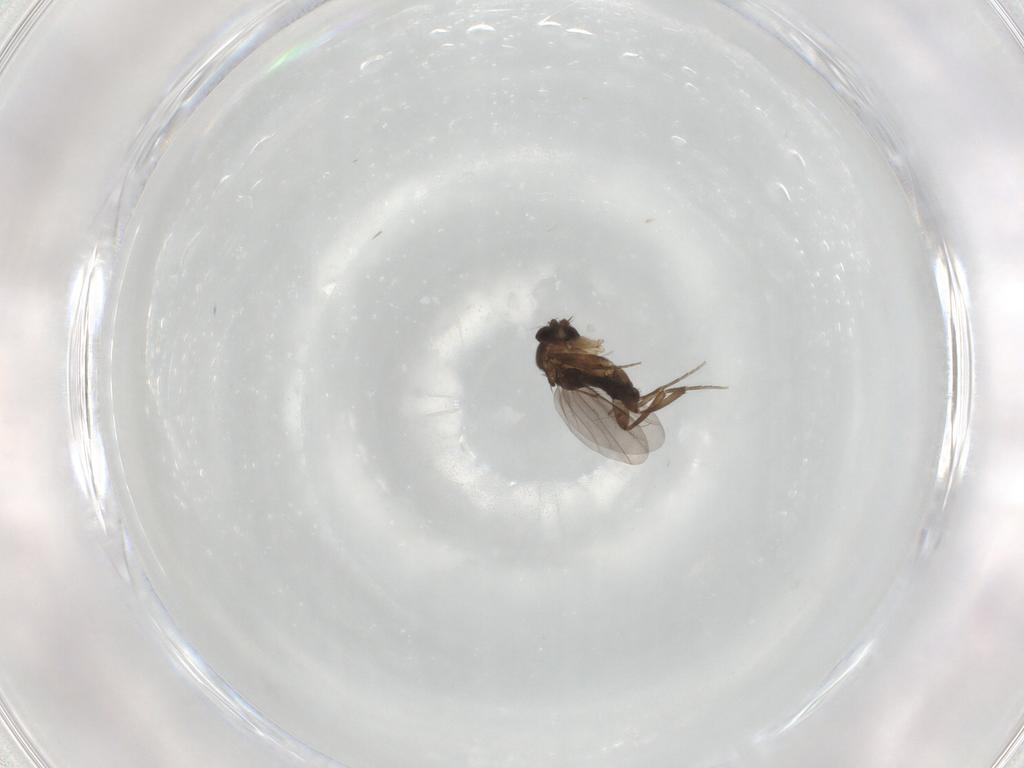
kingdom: Animalia
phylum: Arthropoda
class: Insecta
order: Diptera
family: Phoridae
